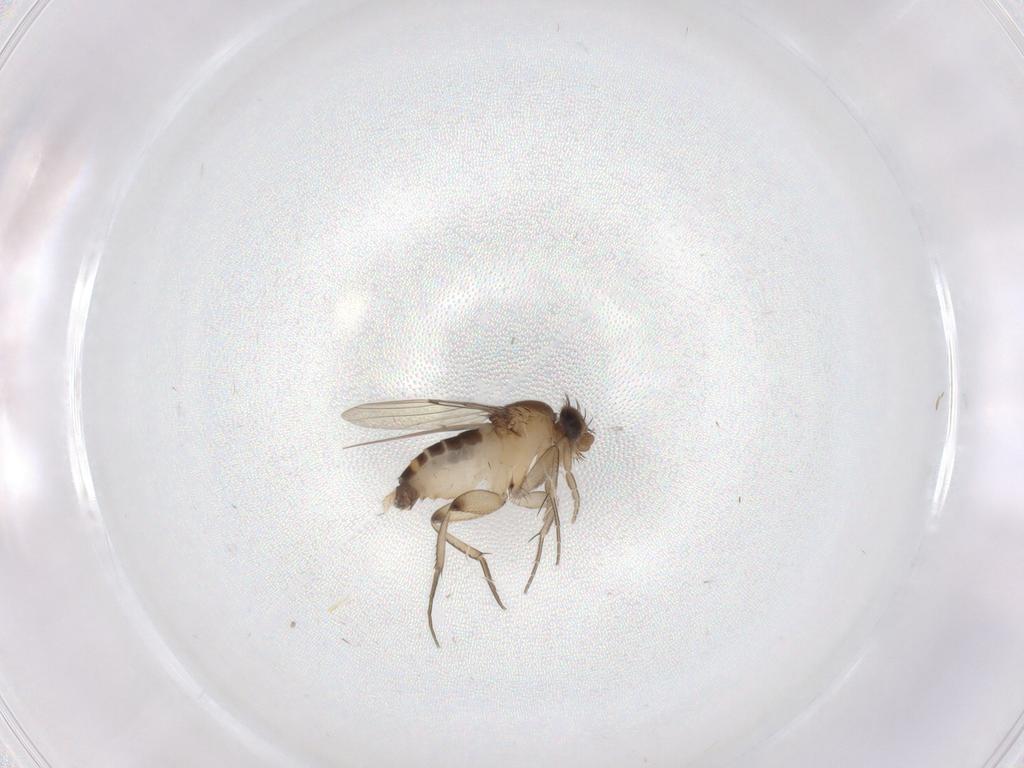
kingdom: Animalia
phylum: Arthropoda
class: Insecta
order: Diptera
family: Phoridae
